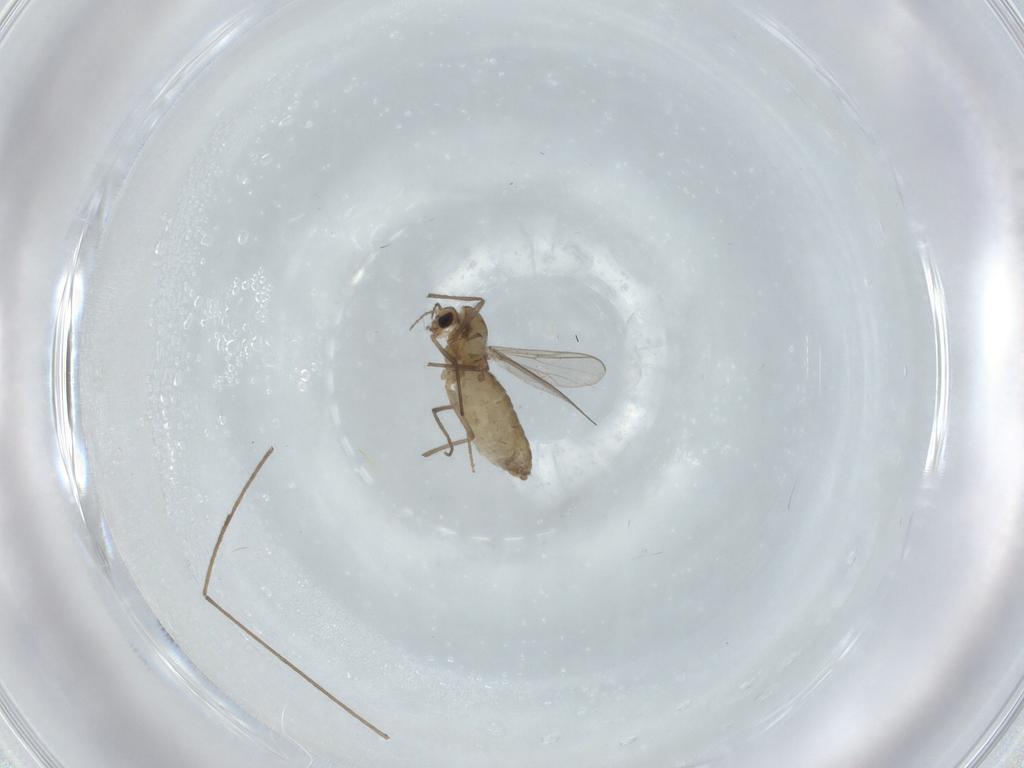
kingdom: Animalia
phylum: Arthropoda
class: Insecta
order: Diptera
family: Chironomidae
